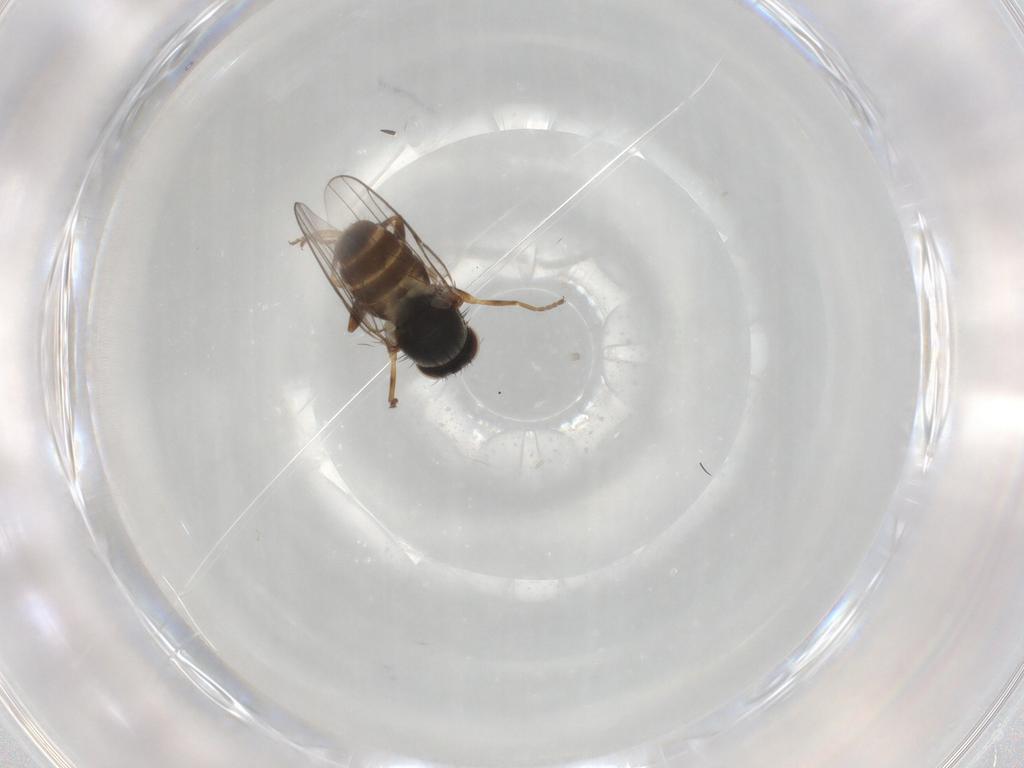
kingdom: Animalia
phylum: Arthropoda
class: Insecta
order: Diptera
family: Chloropidae
